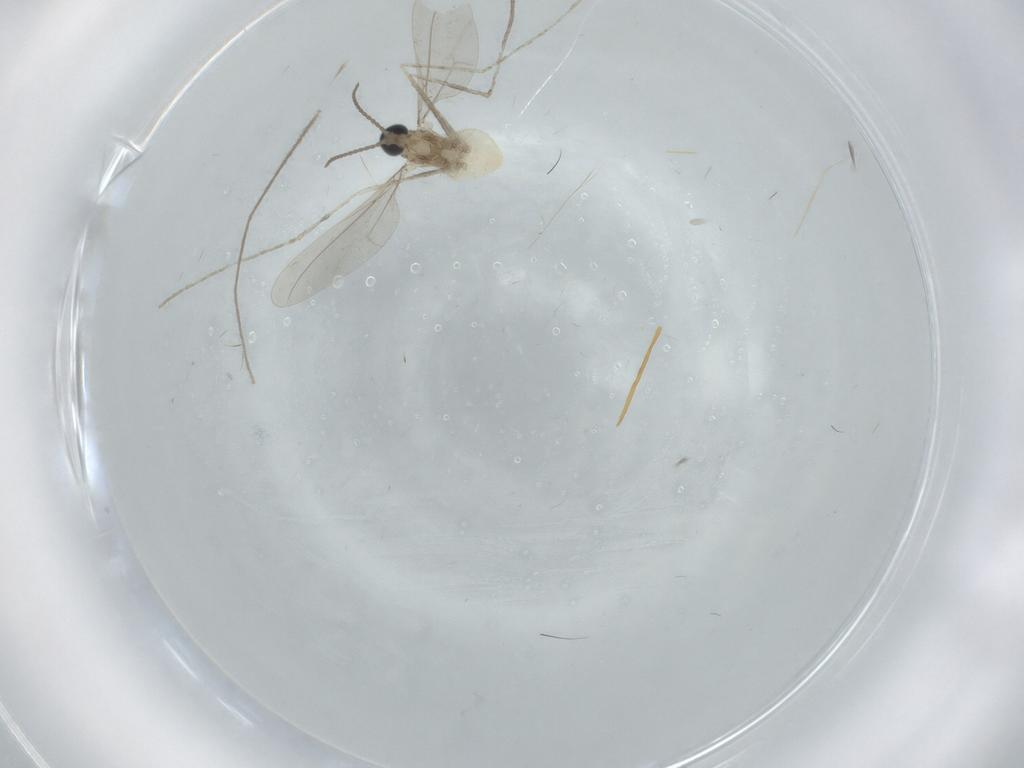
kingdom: Animalia
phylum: Arthropoda
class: Insecta
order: Diptera
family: Cecidomyiidae
